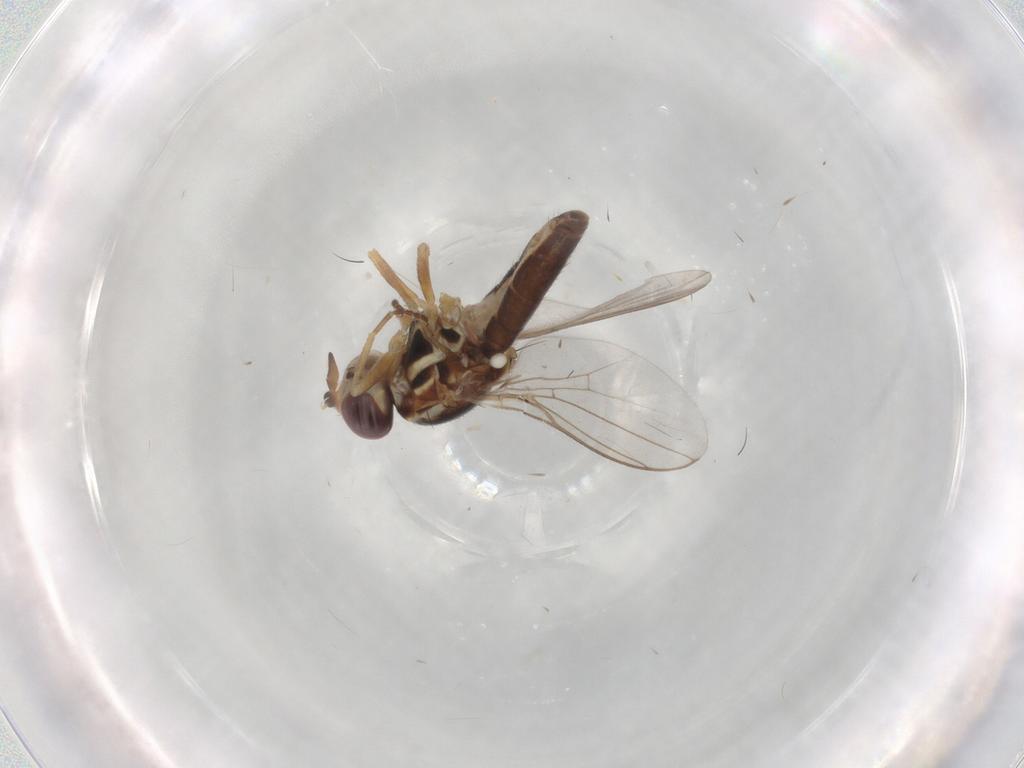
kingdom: Animalia
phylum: Arthropoda
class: Insecta
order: Diptera
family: Chloropidae
